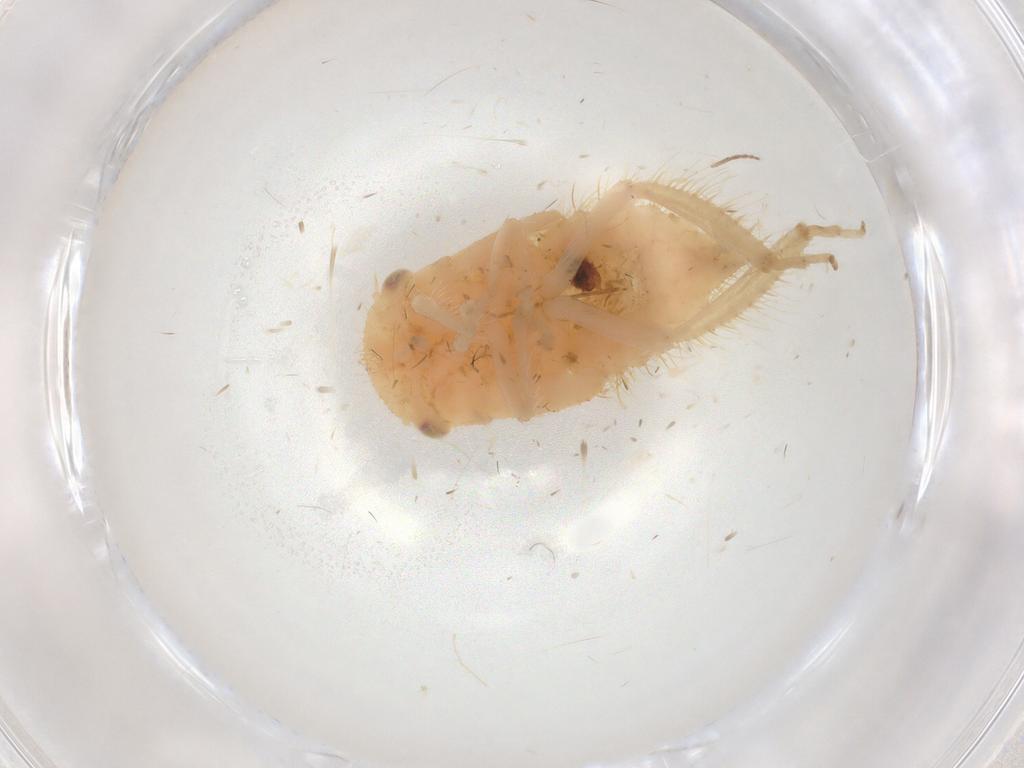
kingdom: Animalia
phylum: Arthropoda
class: Insecta
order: Hemiptera
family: Cicadellidae
